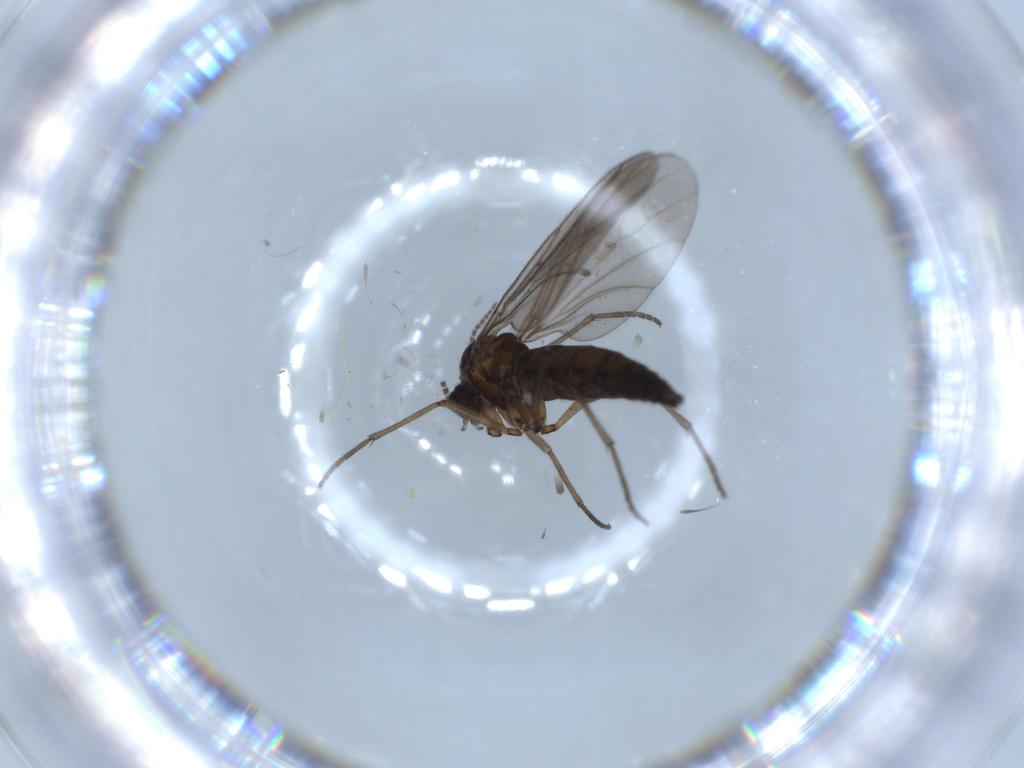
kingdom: Animalia
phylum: Arthropoda
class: Insecta
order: Diptera
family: Sciaridae
